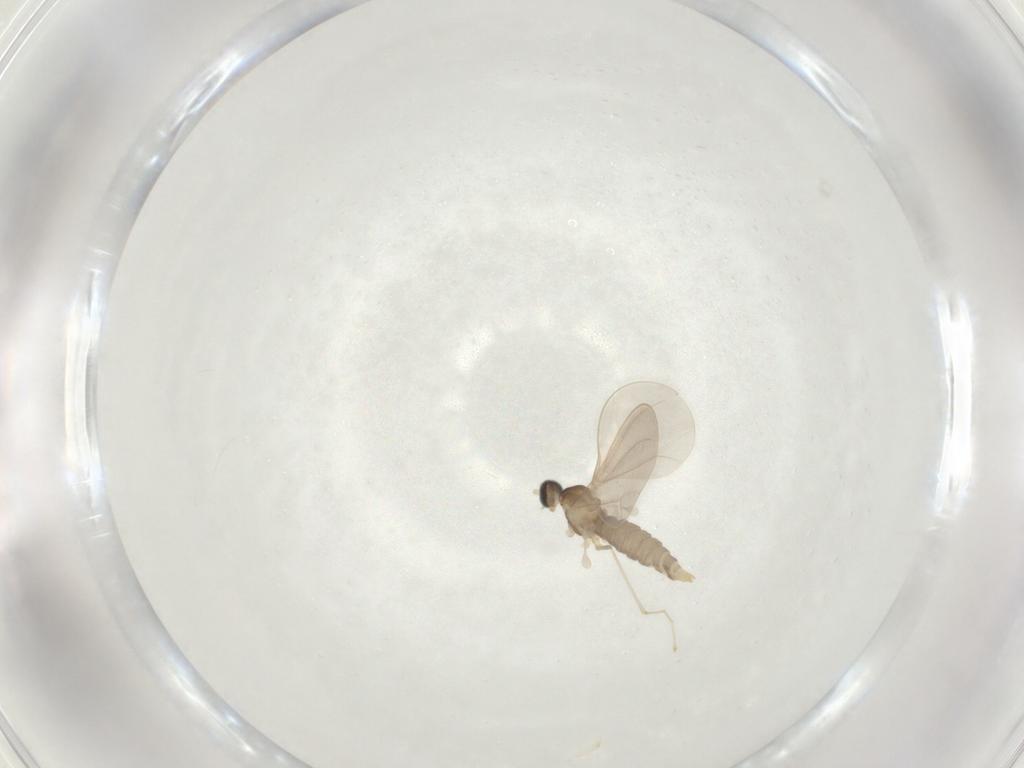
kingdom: Animalia
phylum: Arthropoda
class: Insecta
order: Diptera
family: Cecidomyiidae
